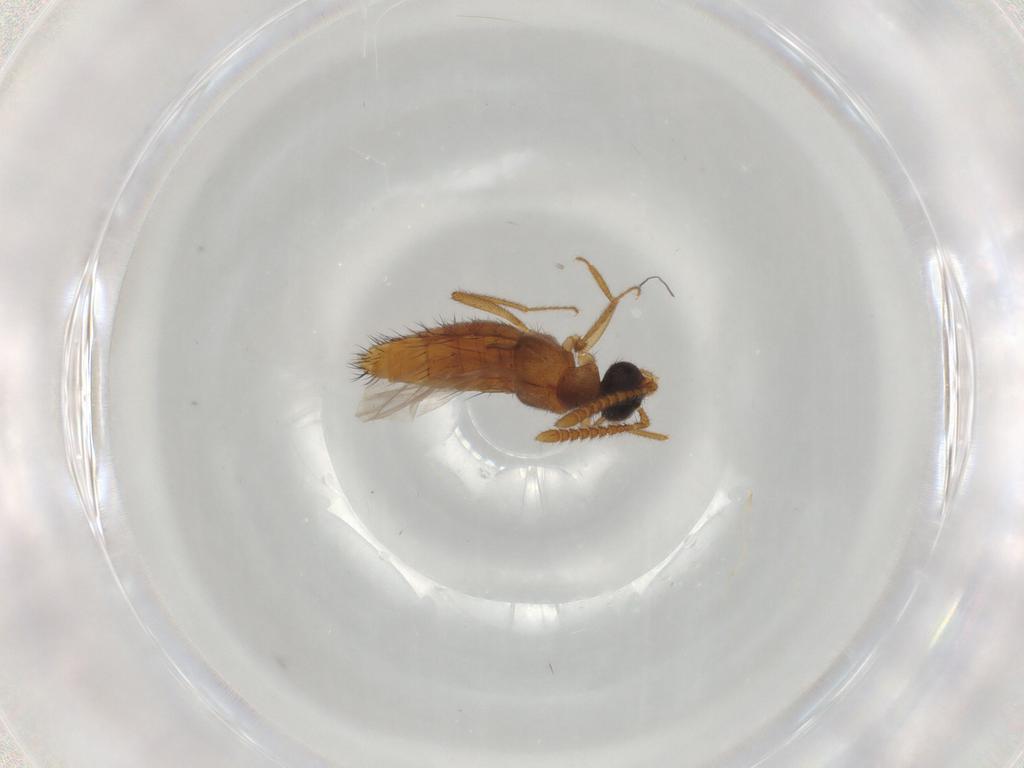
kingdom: Animalia
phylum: Arthropoda
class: Insecta
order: Coleoptera
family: Staphylinidae
